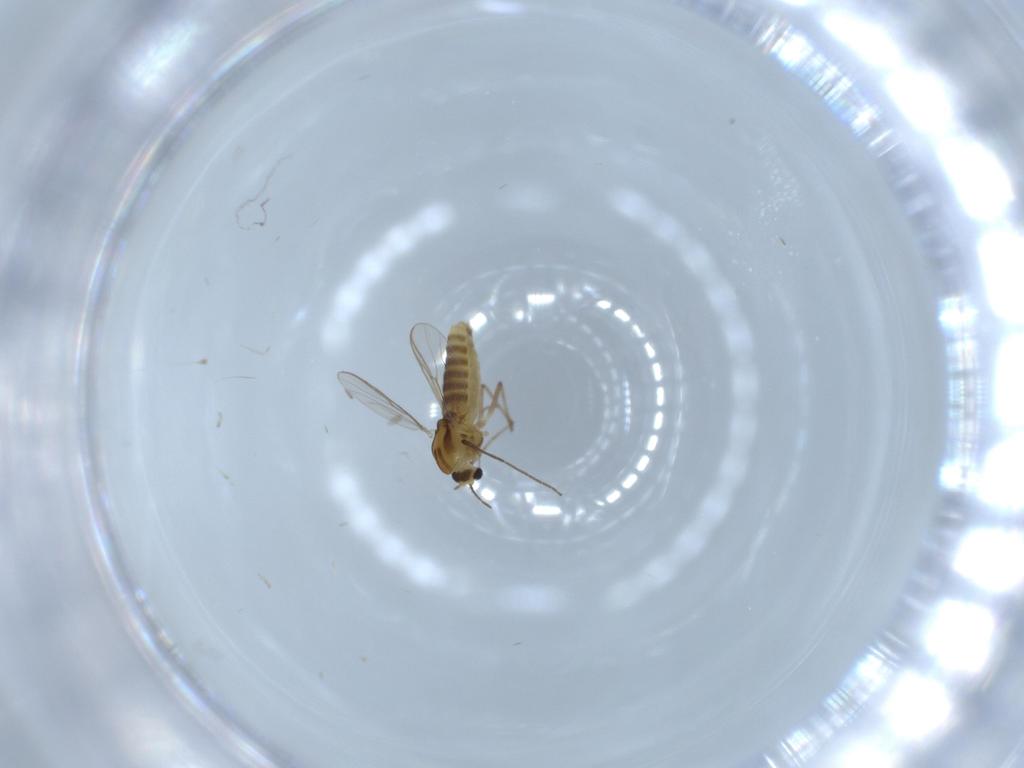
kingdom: Animalia
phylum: Arthropoda
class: Insecta
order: Diptera
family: Chironomidae
